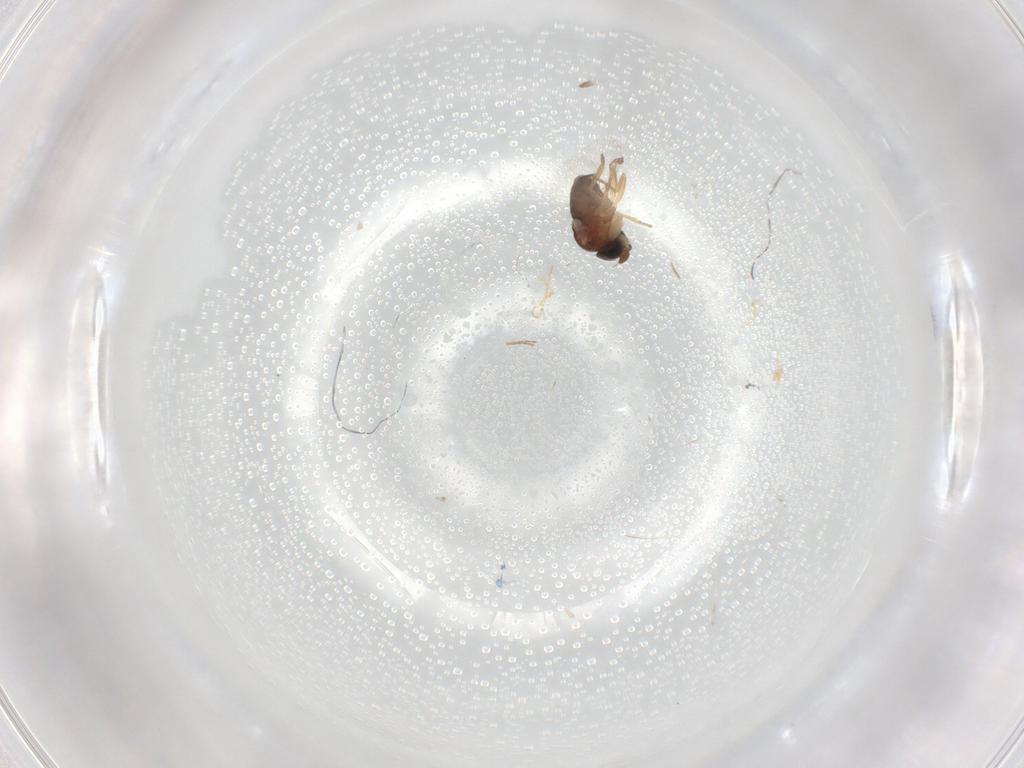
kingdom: Animalia
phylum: Arthropoda
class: Insecta
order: Diptera
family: Phoridae
